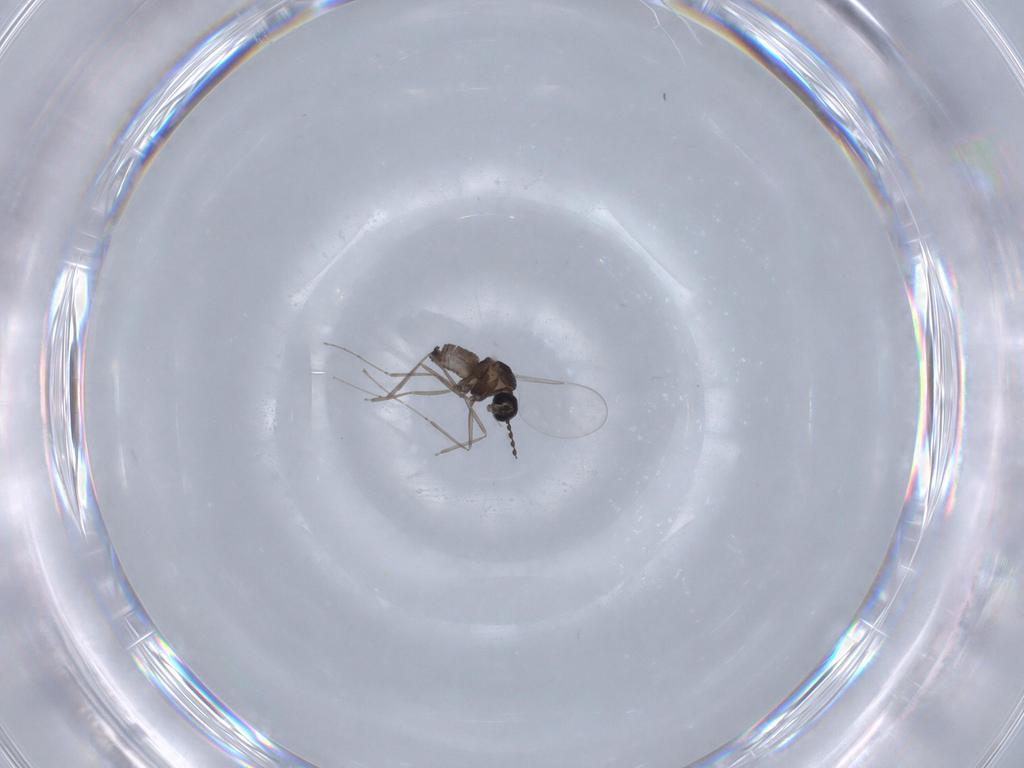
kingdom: Animalia
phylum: Arthropoda
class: Insecta
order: Diptera
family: Cecidomyiidae
